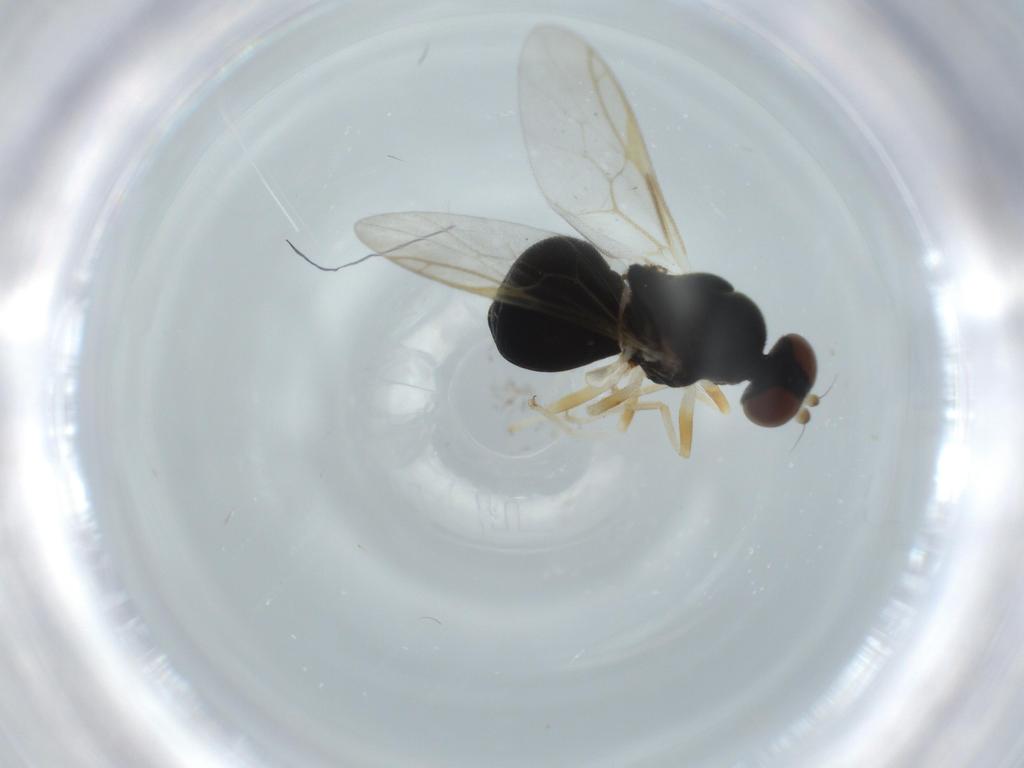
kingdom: Animalia
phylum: Arthropoda
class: Insecta
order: Diptera
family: Stratiomyidae
